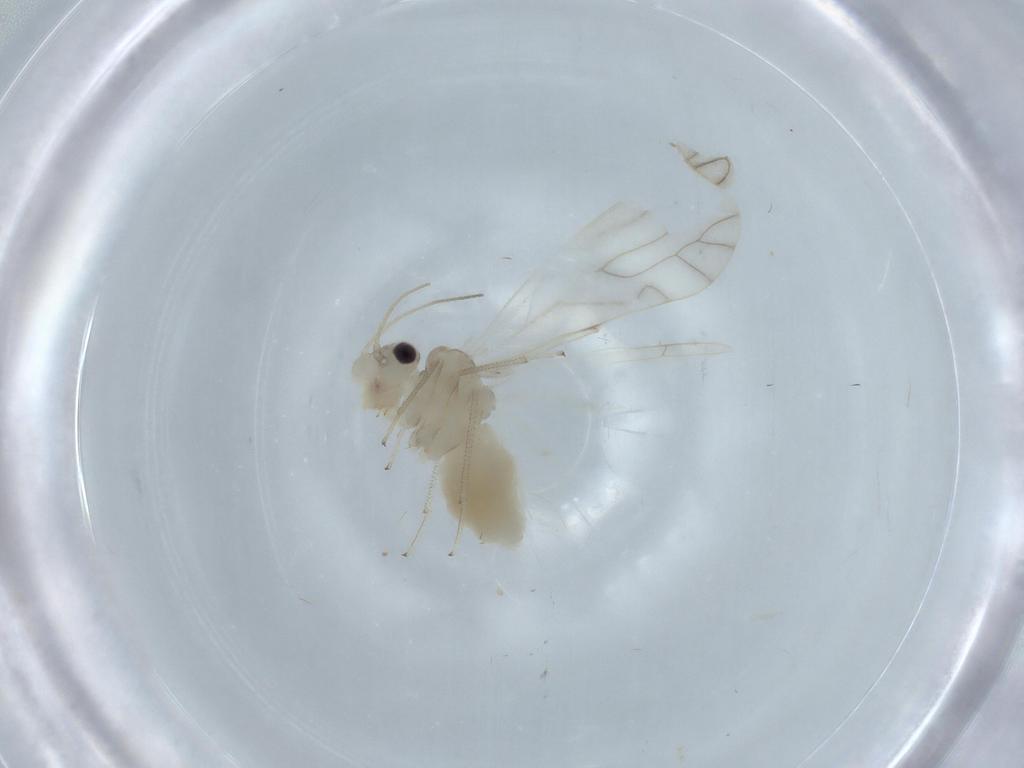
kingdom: Animalia
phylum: Arthropoda
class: Insecta
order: Psocodea
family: Caeciliusidae
